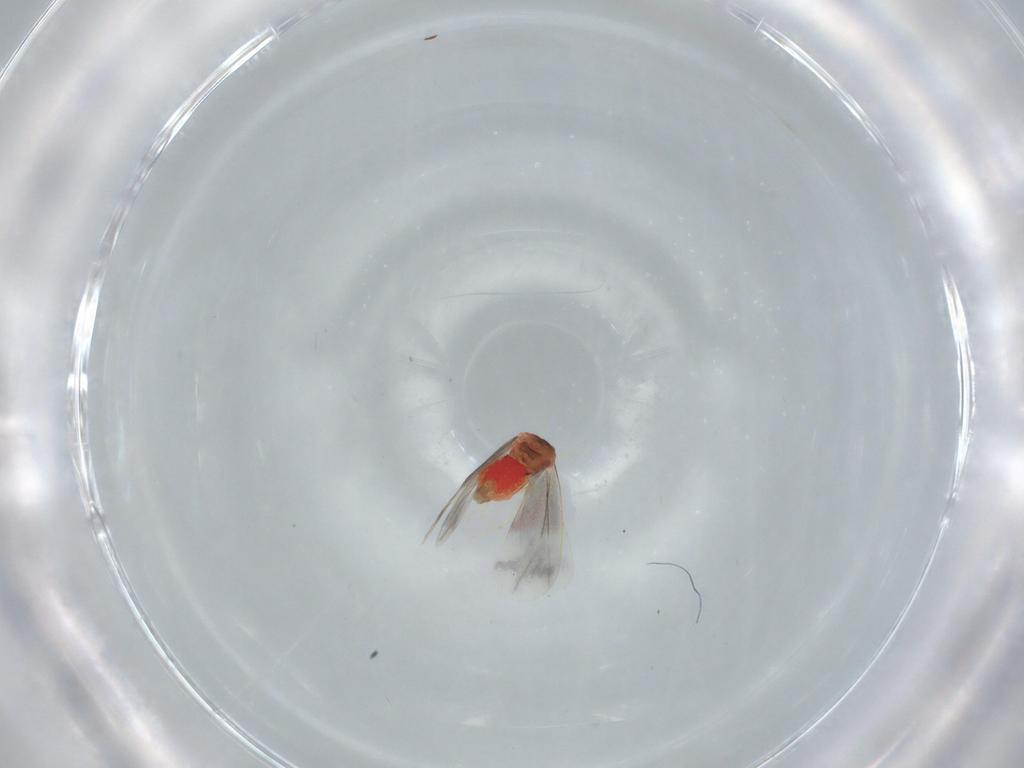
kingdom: Animalia
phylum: Arthropoda
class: Insecta
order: Hemiptera
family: Aleyrodidae
